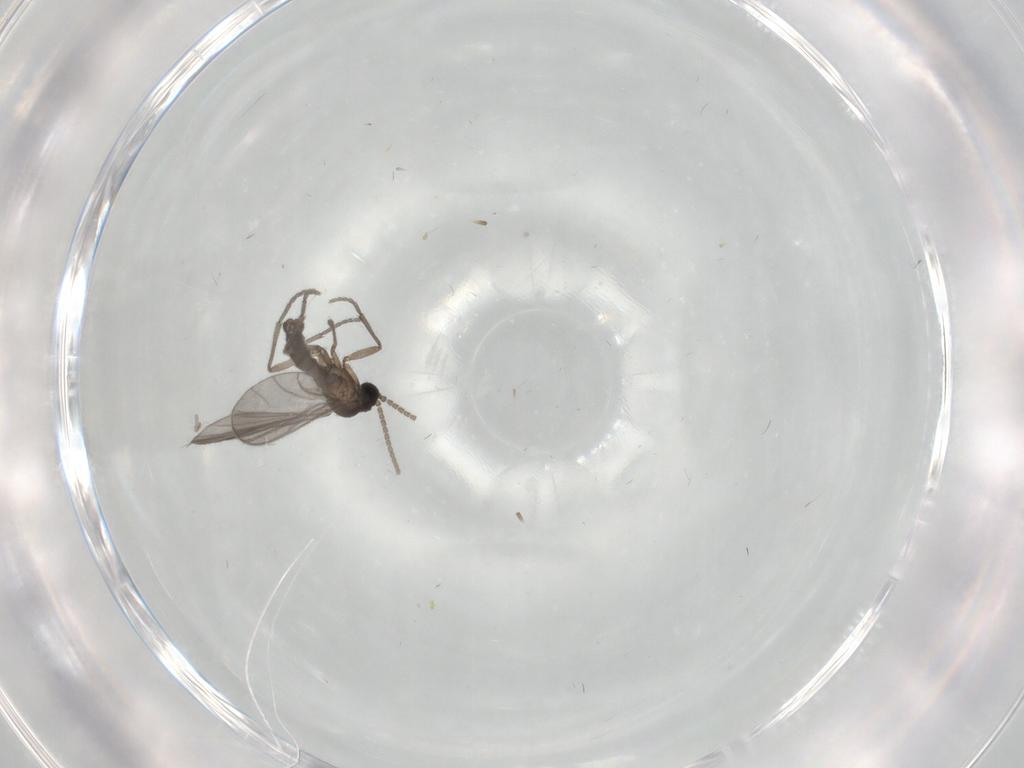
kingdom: Animalia
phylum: Arthropoda
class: Insecta
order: Diptera
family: Sciaridae
